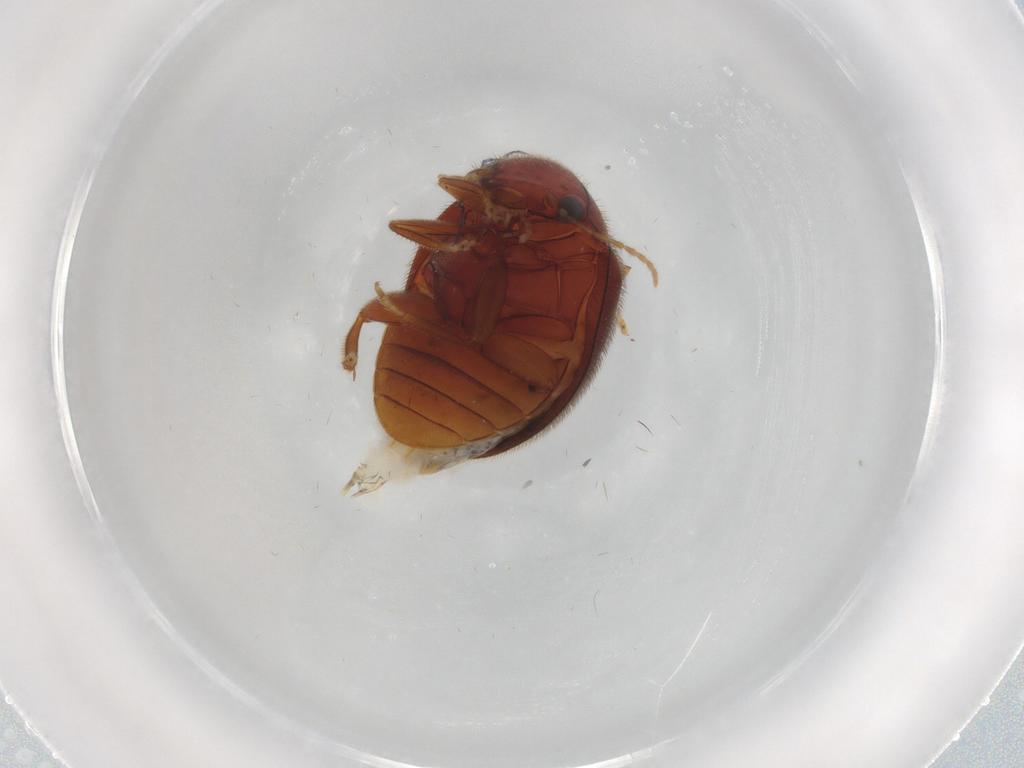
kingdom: Animalia
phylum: Arthropoda
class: Insecta
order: Coleoptera
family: Scirtidae
